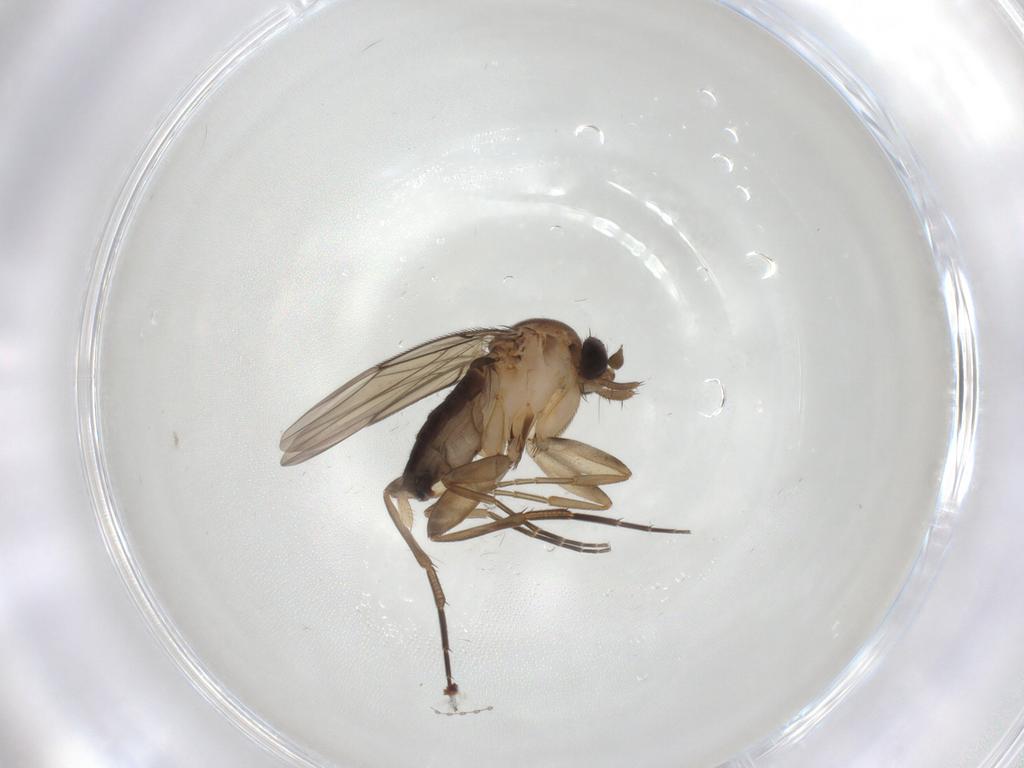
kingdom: Animalia
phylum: Arthropoda
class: Insecta
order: Diptera
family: Phoridae
